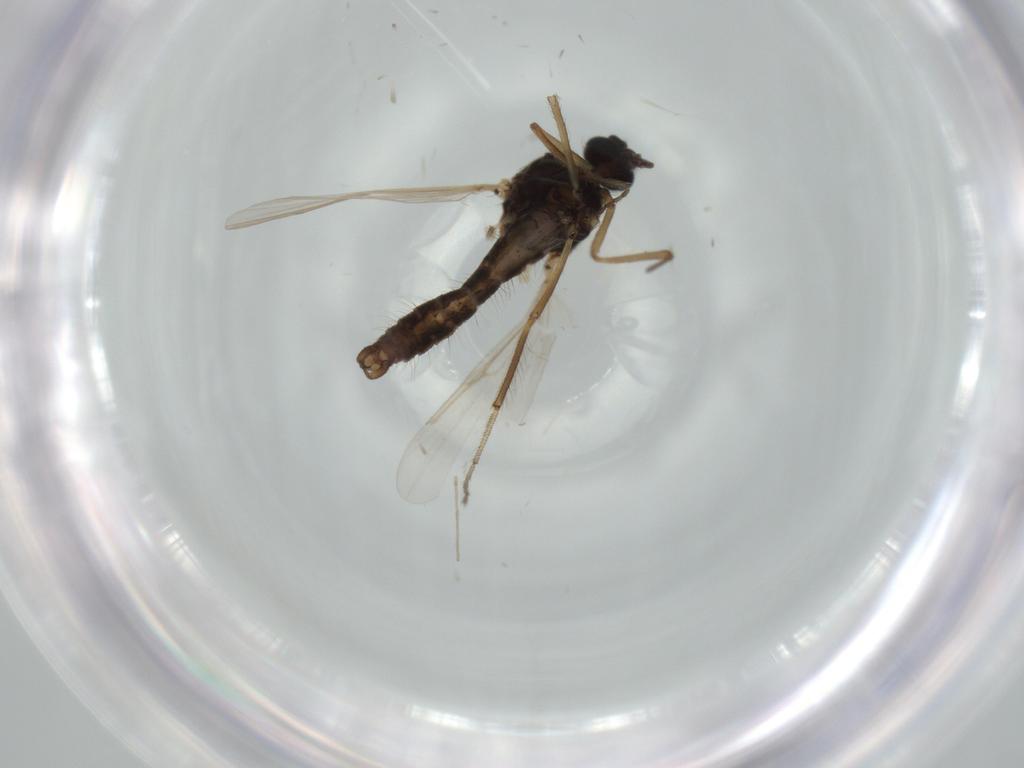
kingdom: Animalia
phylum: Arthropoda
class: Insecta
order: Diptera
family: Ceratopogonidae
